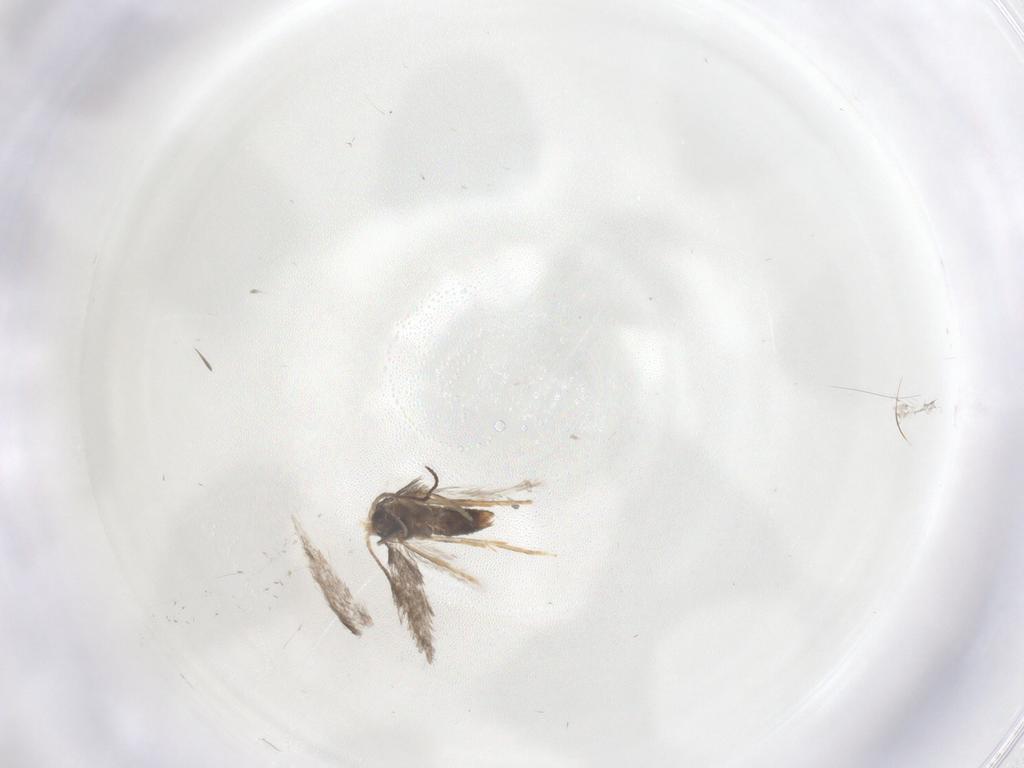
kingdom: Animalia
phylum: Arthropoda
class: Insecta
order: Lepidoptera
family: Nepticulidae
